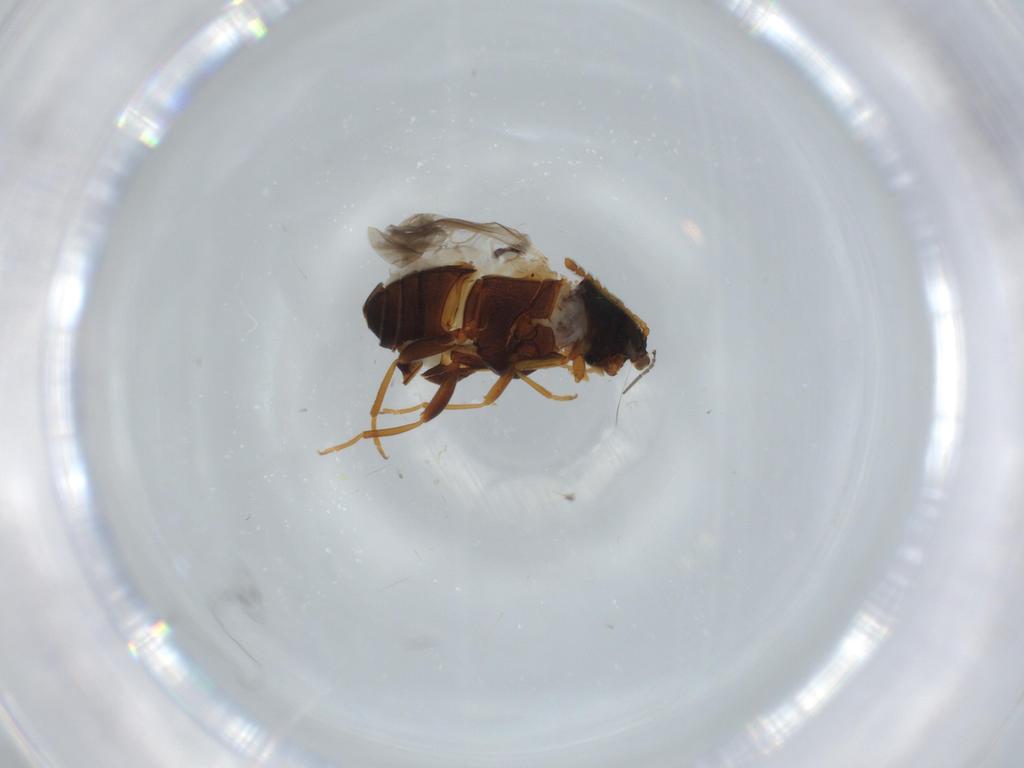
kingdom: Animalia
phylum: Arthropoda
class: Insecta
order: Coleoptera
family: Aderidae
